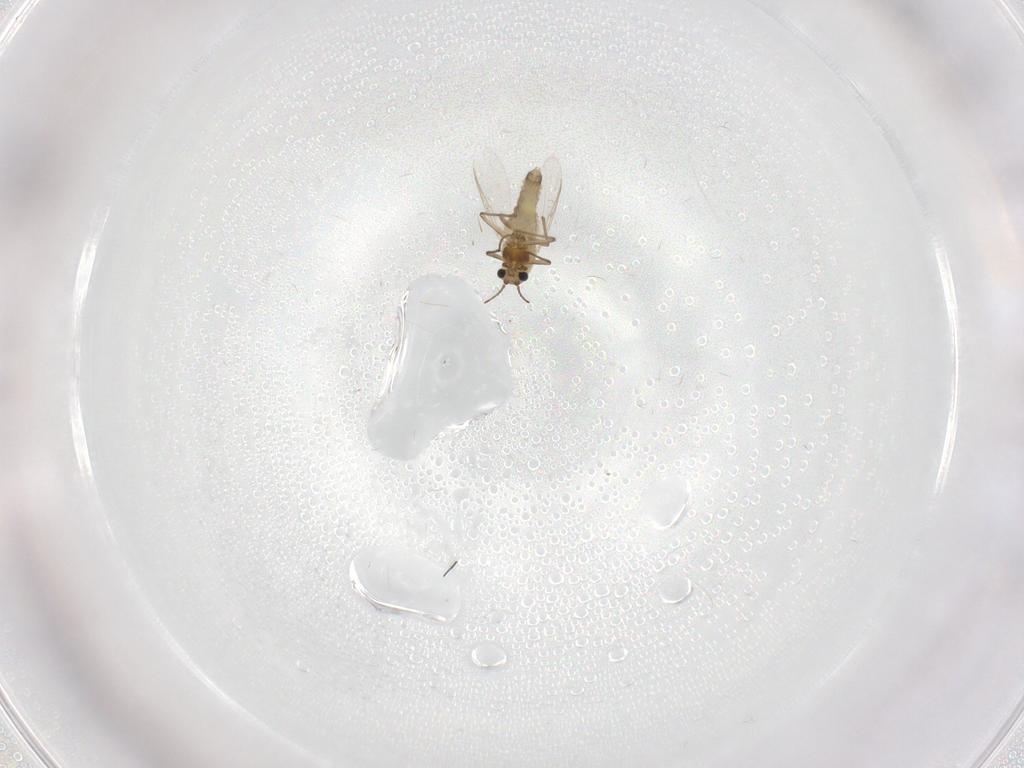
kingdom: Animalia
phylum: Arthropoda
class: Insecta
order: Diptera
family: Chironomidae
